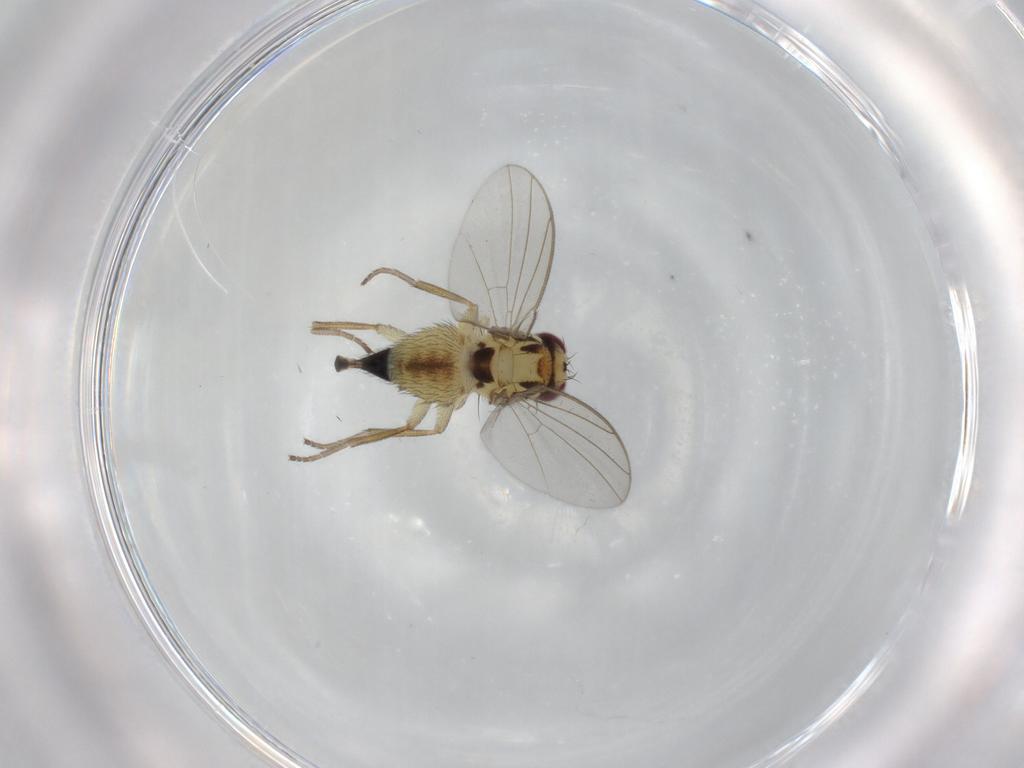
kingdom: Animalia
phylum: Arthropoda
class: Insecta
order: Diptera
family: Agromyzidae
